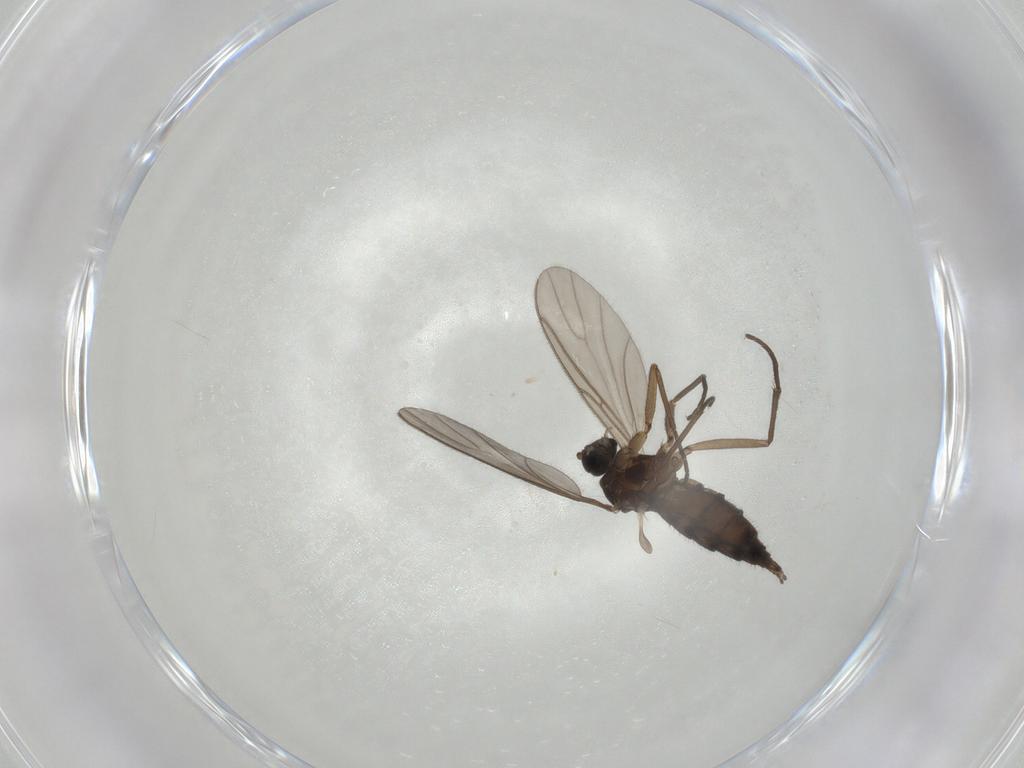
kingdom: Animalia
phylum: Arthropoda
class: Insecta
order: Diptera
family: Sciaridae
